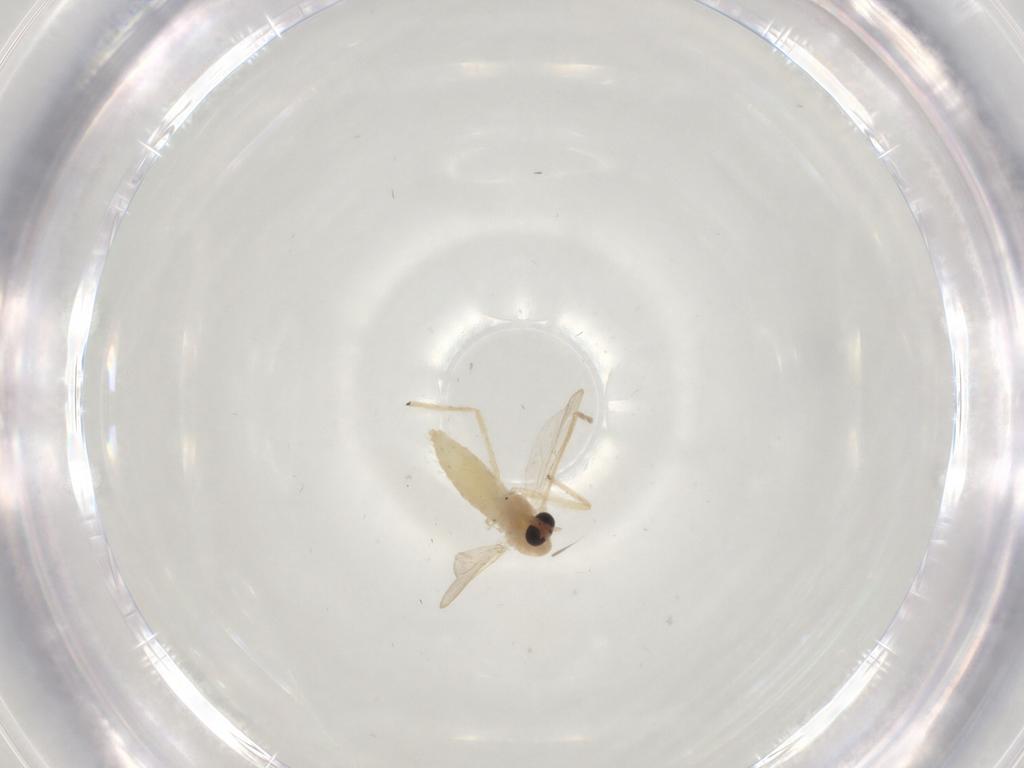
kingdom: Animalia
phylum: Arthropoda
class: Insecta
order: Diptera
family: Chironomidae
